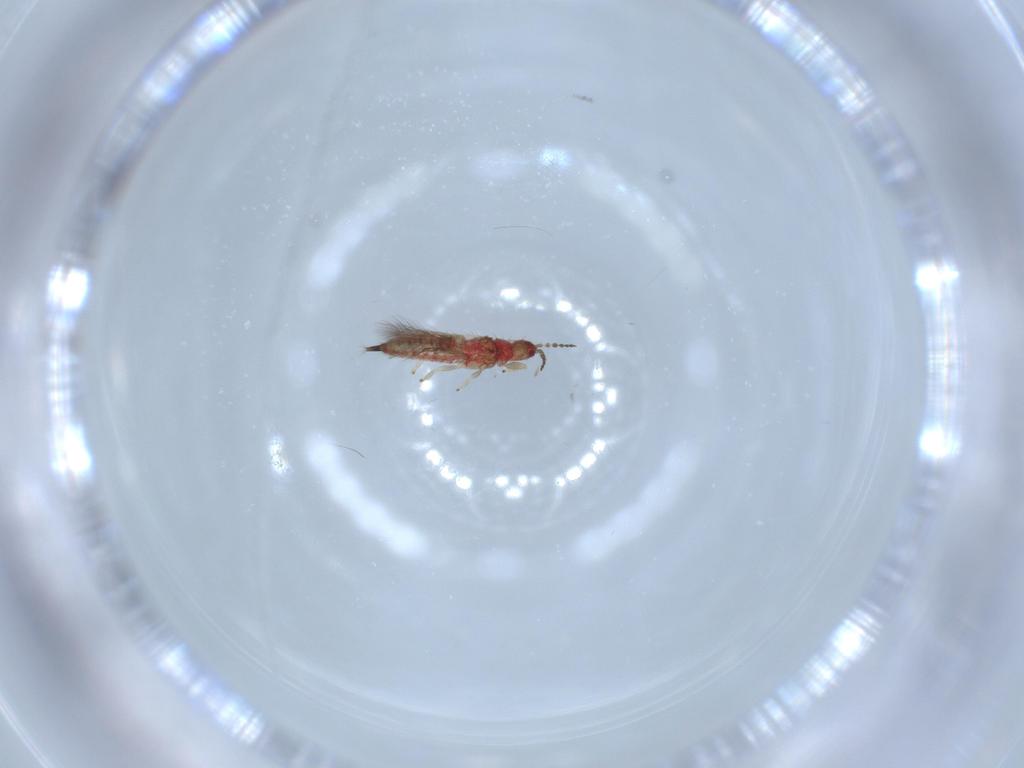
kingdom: Animalia
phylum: Arthropoda
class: Insecta
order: Thysanoptera
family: Phlaeothripidae
